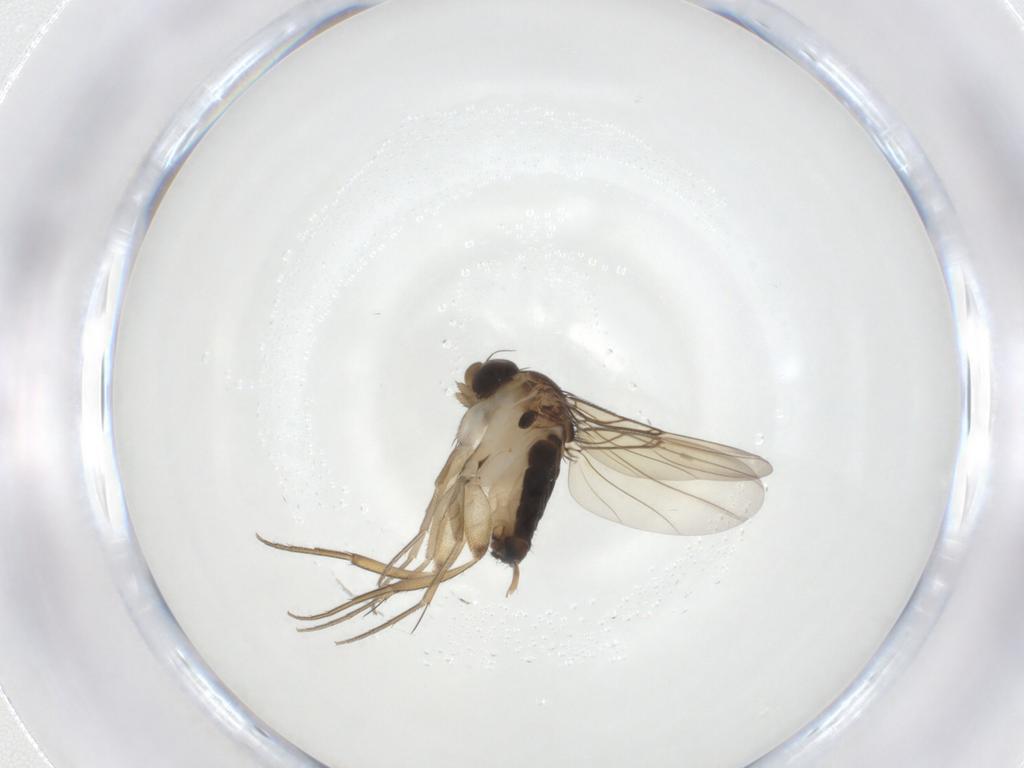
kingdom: Animalia
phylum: Arthropoda
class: Insecta
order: Diptera
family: Phoridae
